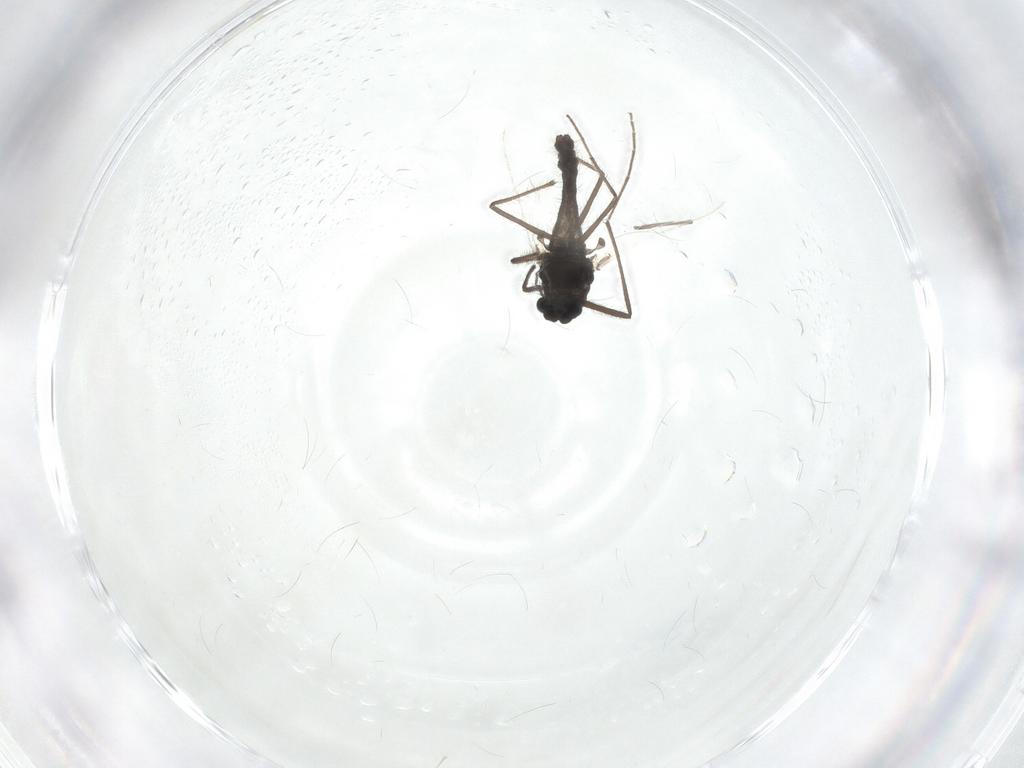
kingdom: Animalia
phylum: Arthropoda
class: Insecta
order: Diptera
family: Chironomidae
